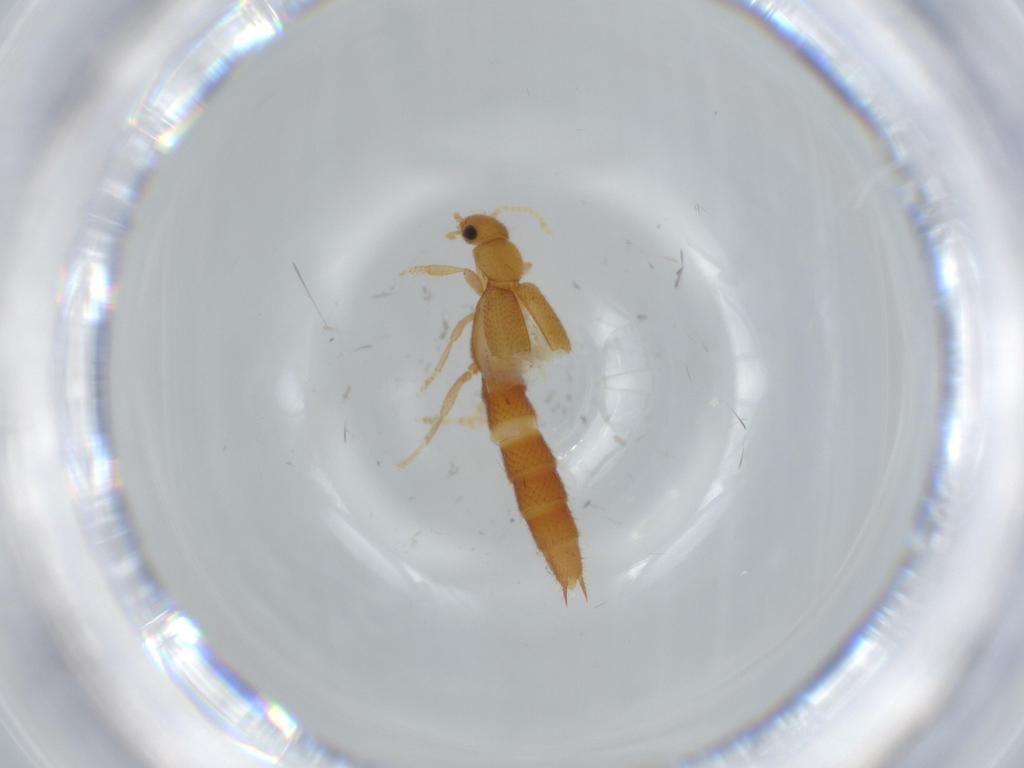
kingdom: Animalia
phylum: Arthropoda
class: Insecta
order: Coleoptera
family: Staphylinidae
